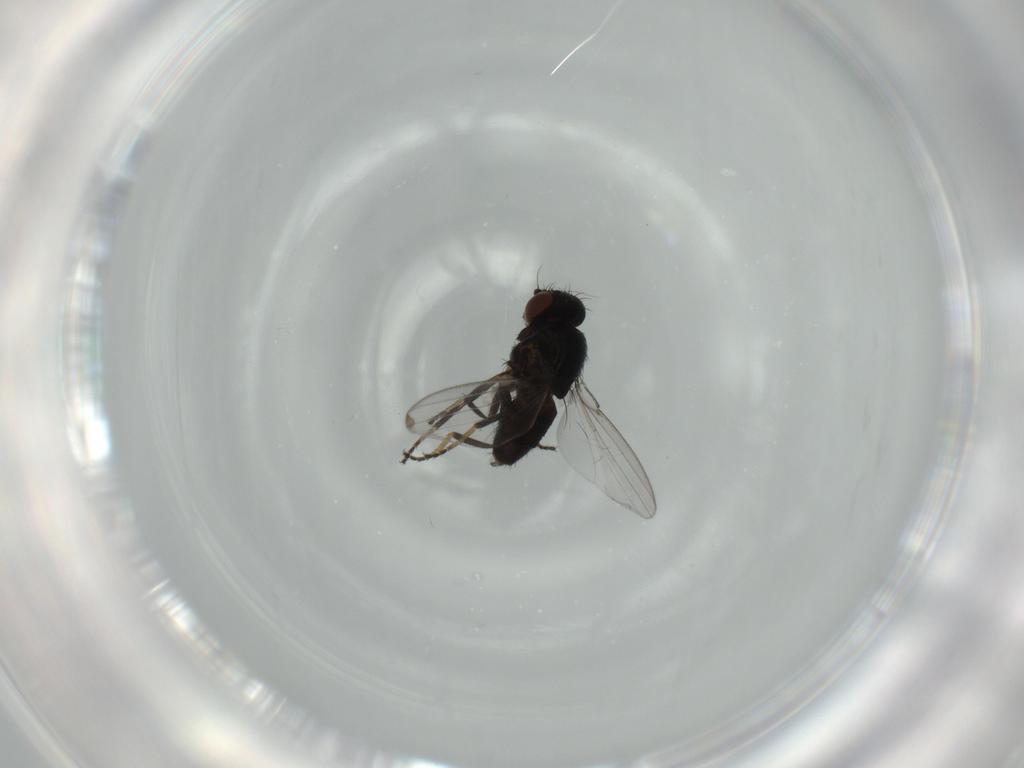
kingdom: Animalia
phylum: Arthropoda
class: Insecta
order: Diptera
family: Milichiidae
